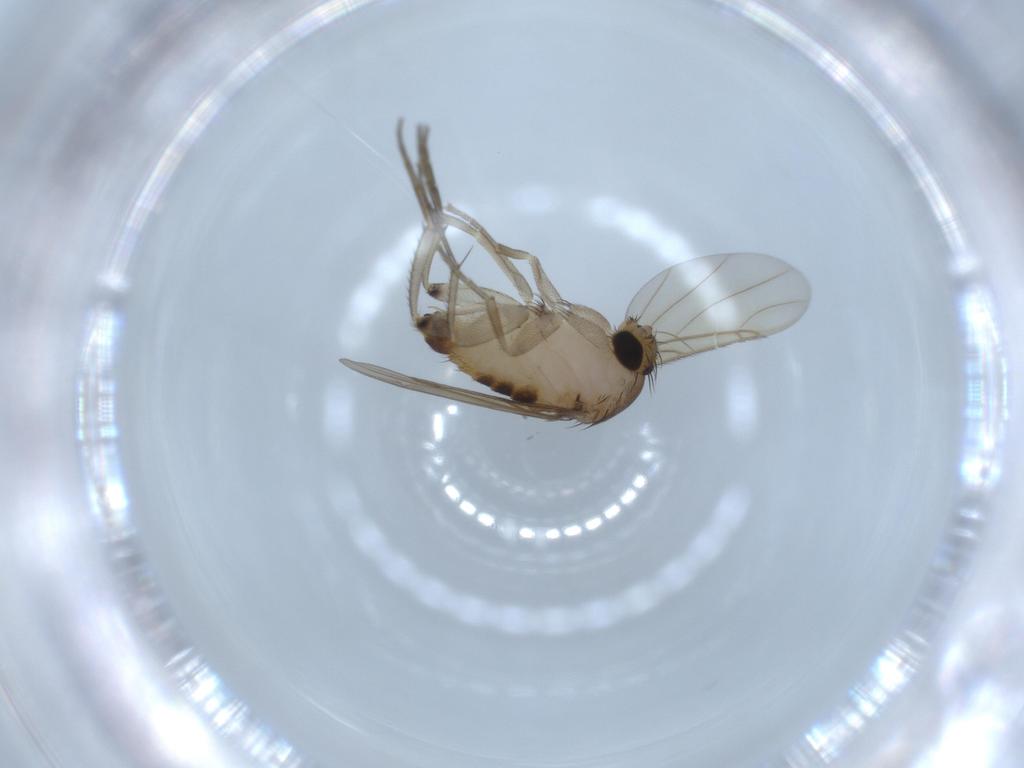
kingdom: Animalia
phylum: Arthropoda
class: Insecta
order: Diptera
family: Phoridae
